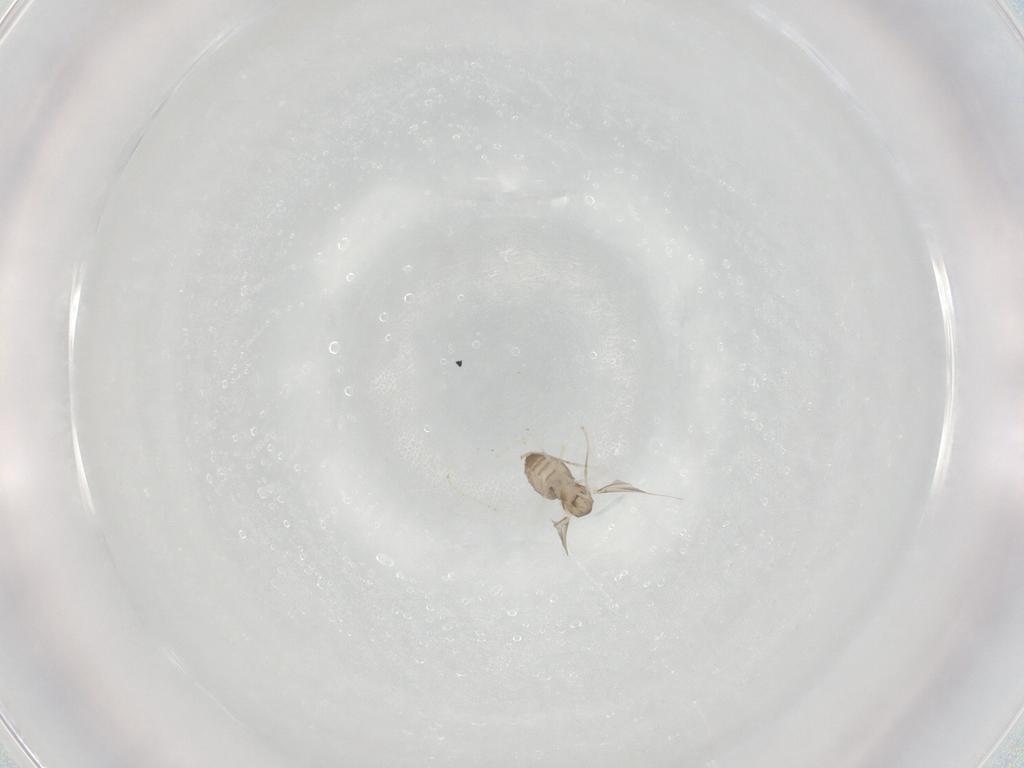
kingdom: Animalia
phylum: Arthropoda
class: Insecta
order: Diptera
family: Cecidomyiidae
